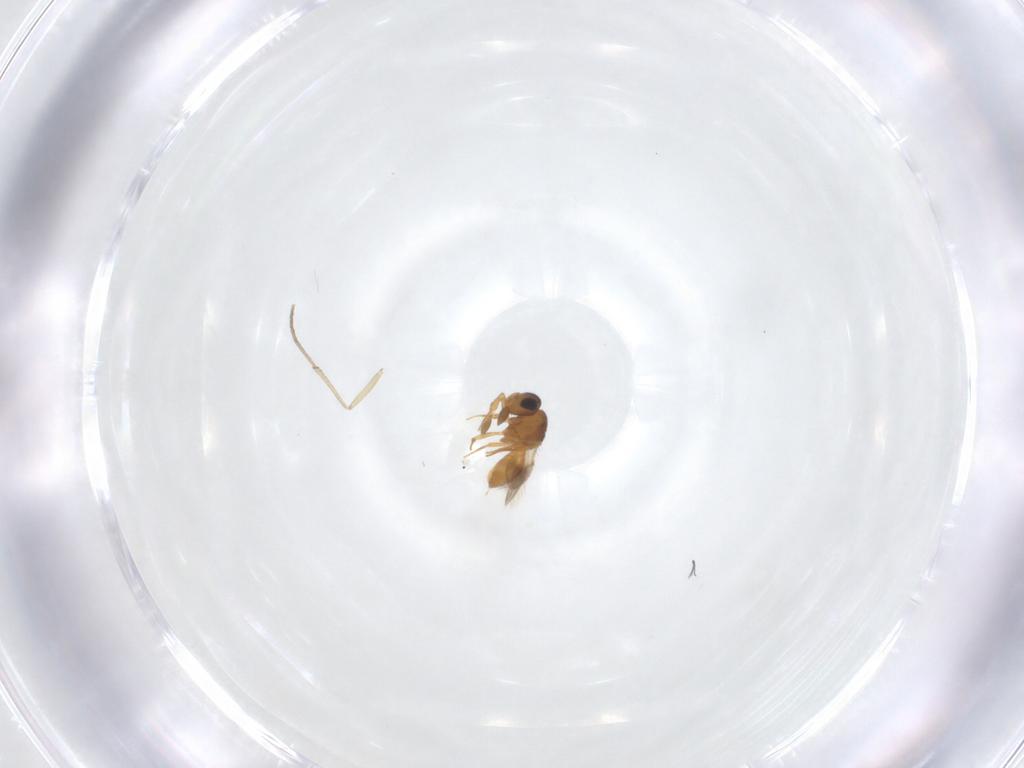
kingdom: Animalia
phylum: Arthropoda
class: Insecta
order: Hymenoptera
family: Scelionidae
